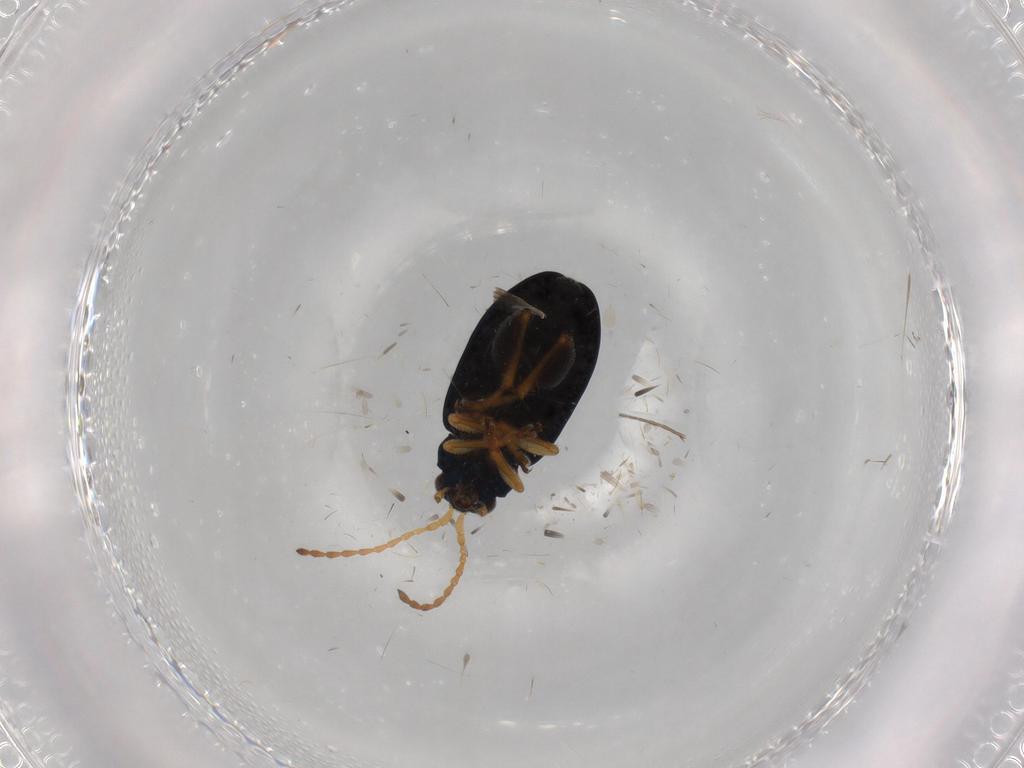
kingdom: Animalia
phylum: Arthropoda
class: Insecta
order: Coleoptera
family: Chrysomelidae
